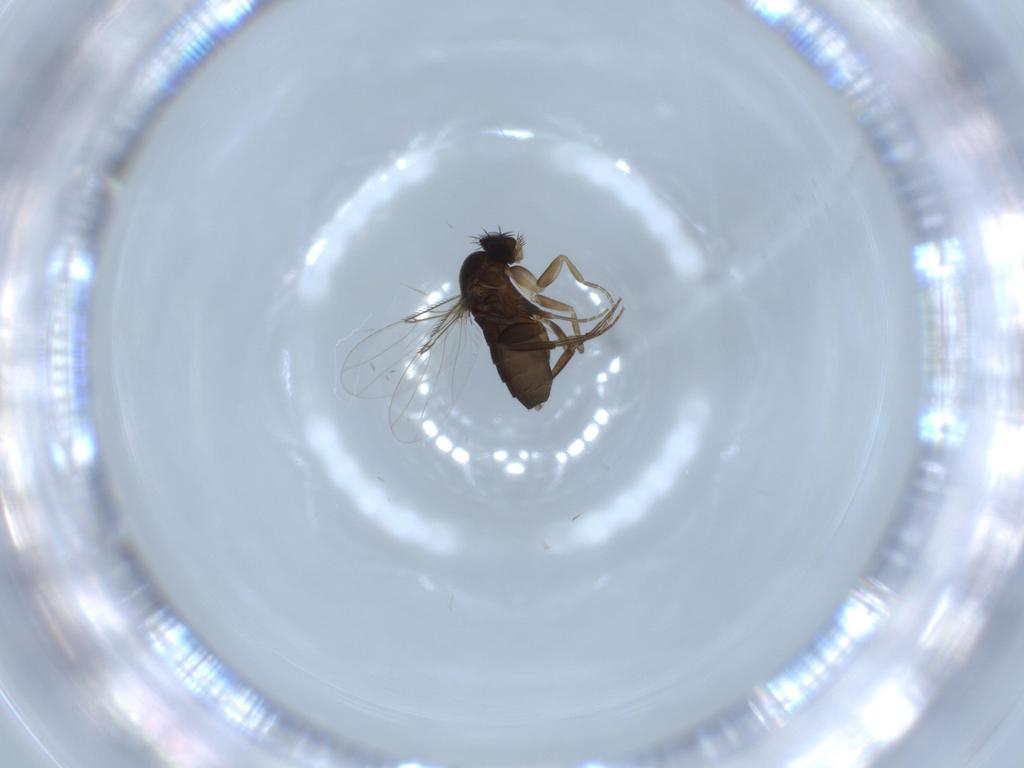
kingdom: Animalia
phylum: Arthropoda
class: Insecta
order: Diptera
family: Phoridae
